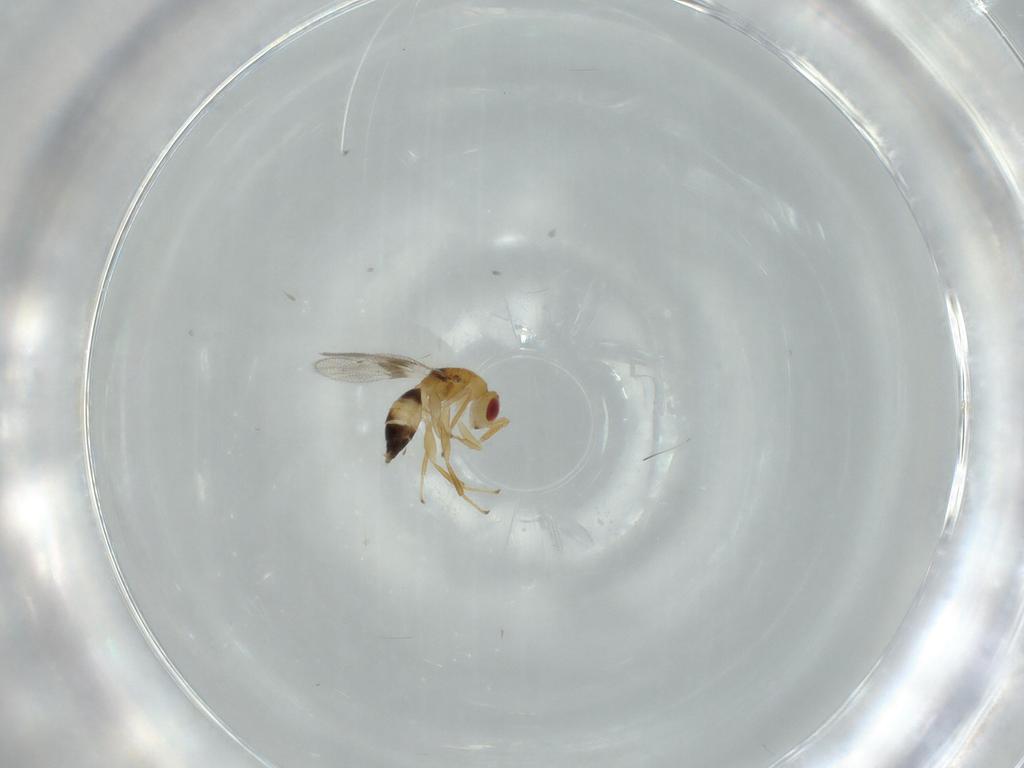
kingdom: Animalia
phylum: Arthropoda
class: Insecta
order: Hymenoptera
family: Torymidae
